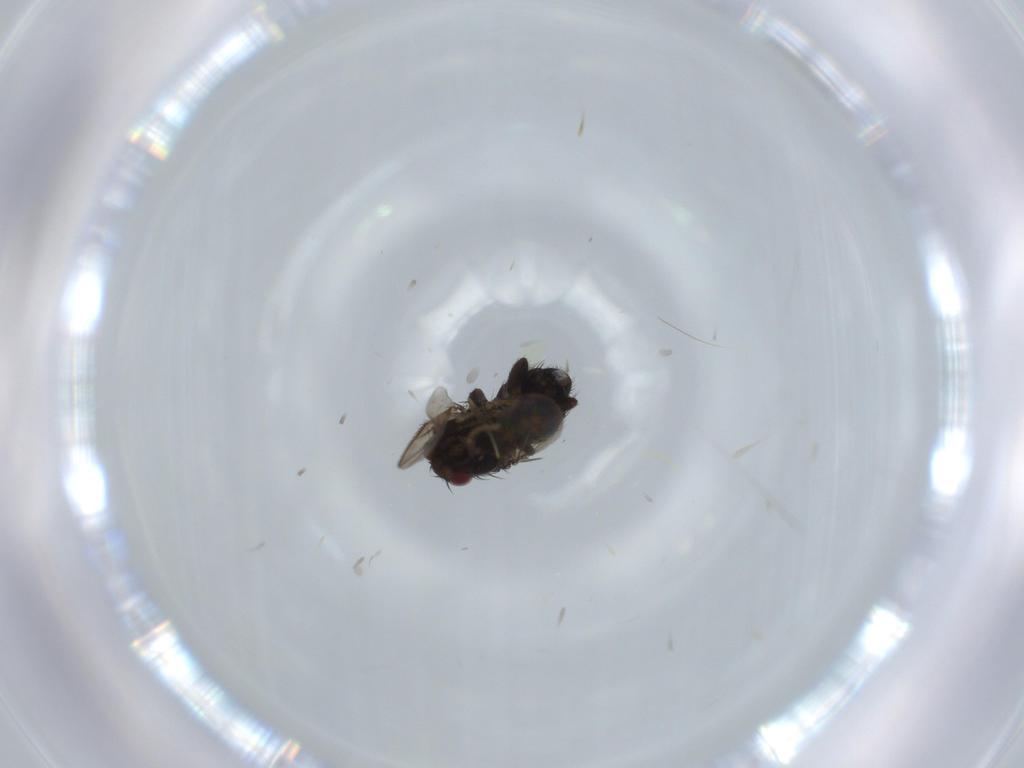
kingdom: Animalia
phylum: Arthropoda
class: Insecta
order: Diptera
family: Sphaeroceridae
